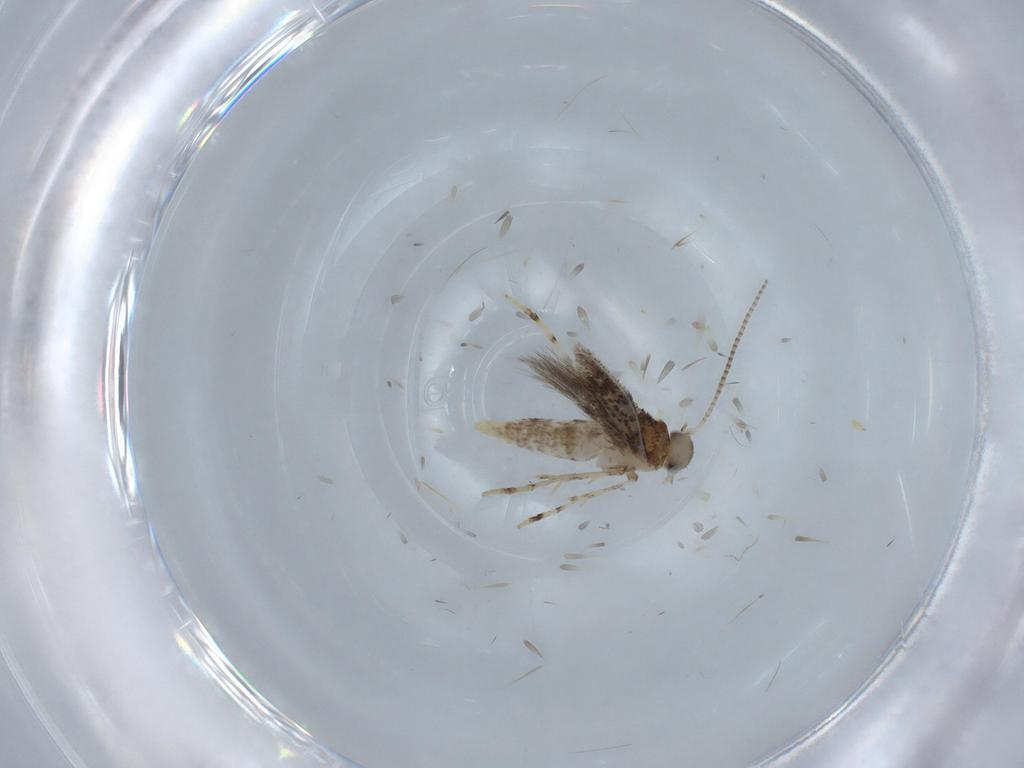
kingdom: Animalia
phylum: Arthropoda
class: Insecta
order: Lepidoptera
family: Gracillariidae
